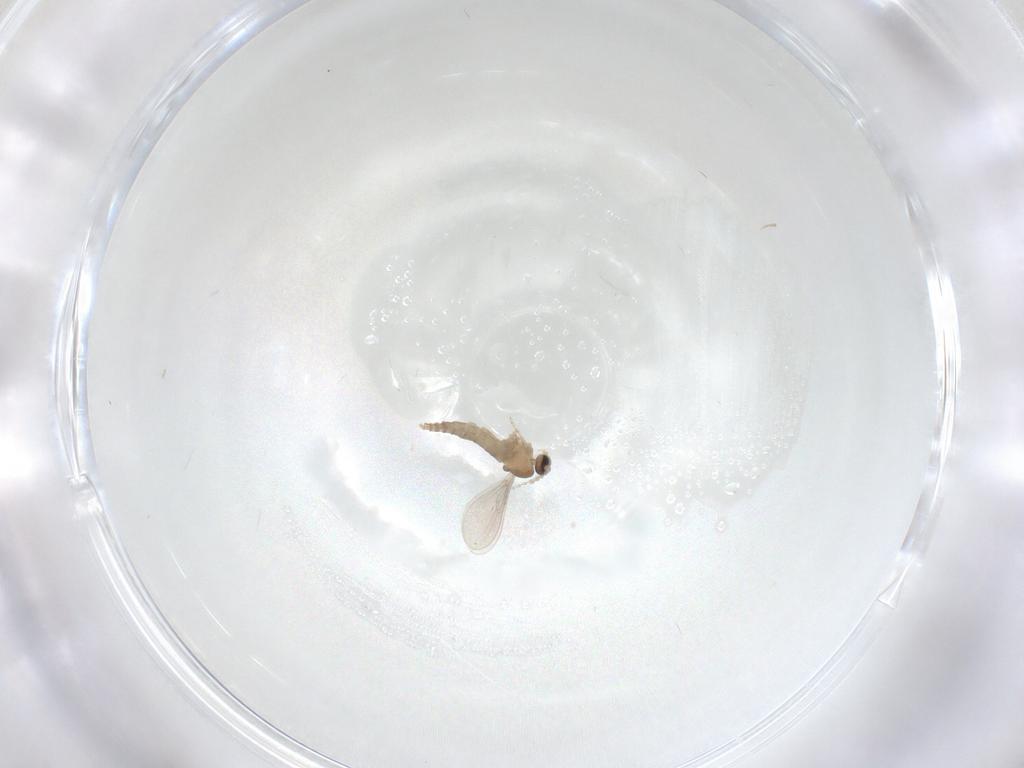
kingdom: Animalia
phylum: Arthropoda
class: Insecta
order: Diptera
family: Cecidomyiidae
